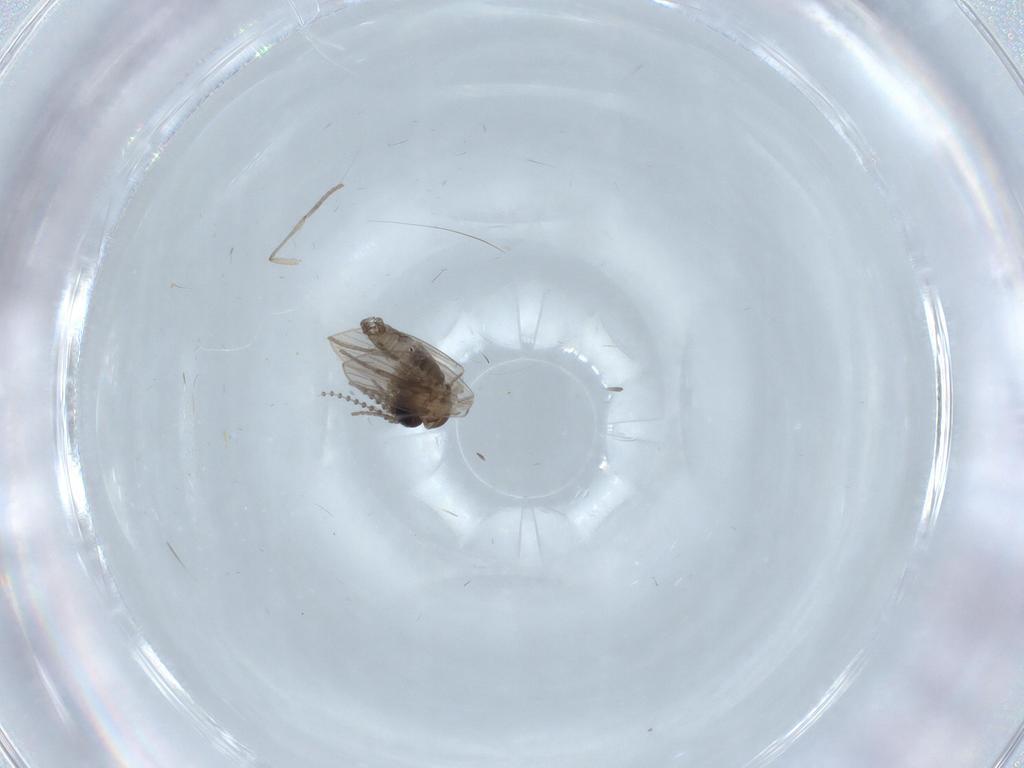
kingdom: Animalia
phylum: Arthropoda
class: Insecta
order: Diptera
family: Psychodidae
